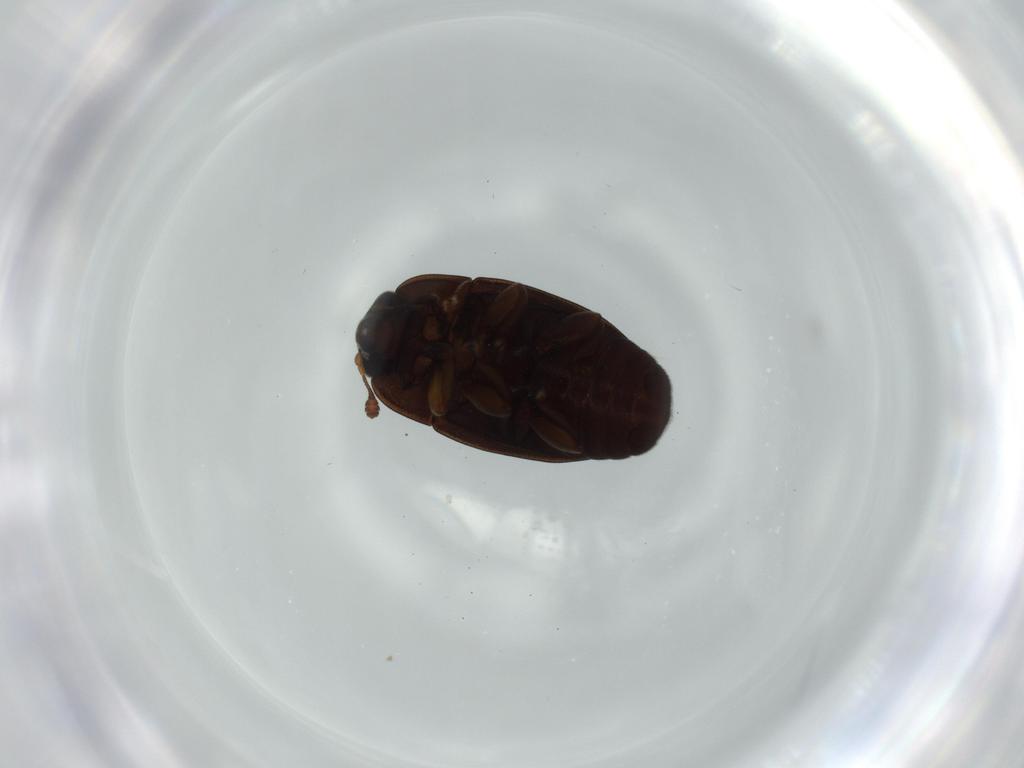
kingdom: Animalia
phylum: Arthropoda
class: Insecta
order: Coleoptera
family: Nitidulidae
